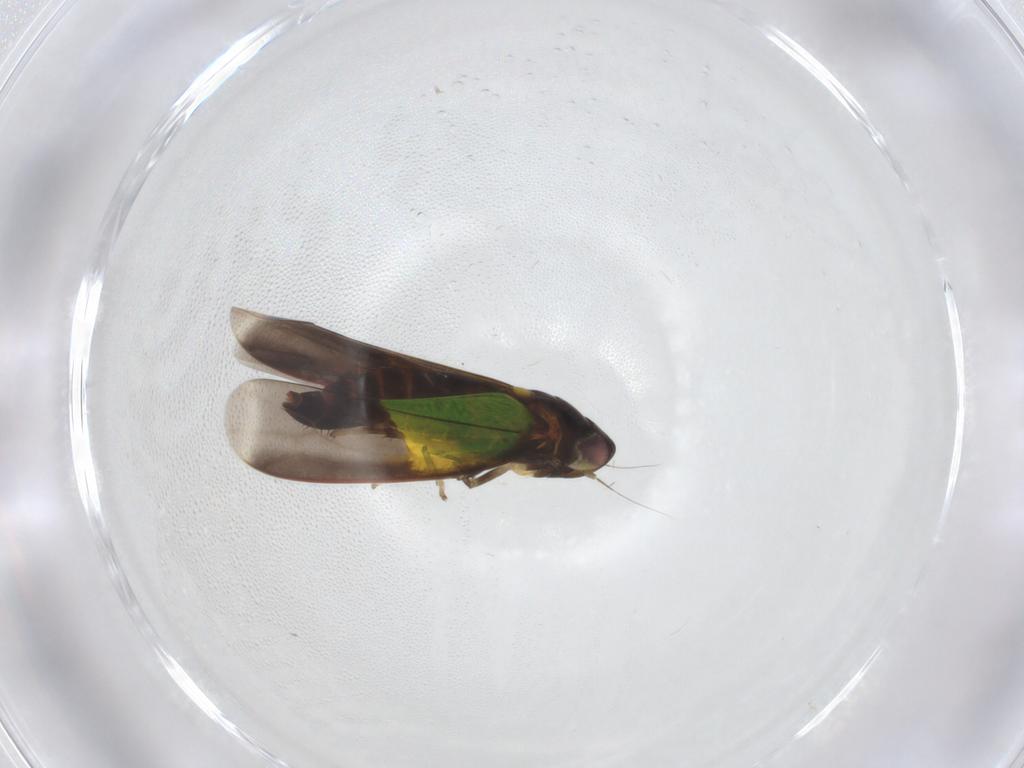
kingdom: Animalia
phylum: Arthropoda
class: Insecta
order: Hemiptera
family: Cicadellidae
